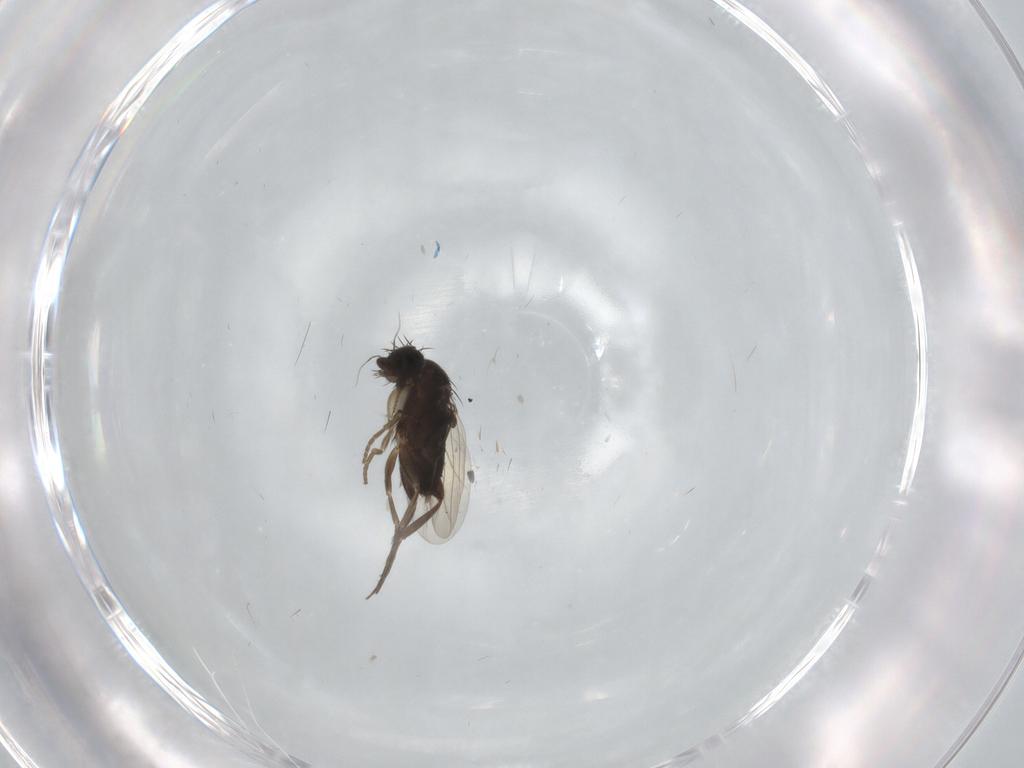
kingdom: Animalia
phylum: Arthropoda
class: Insecta
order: Diptera
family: Phoridae
